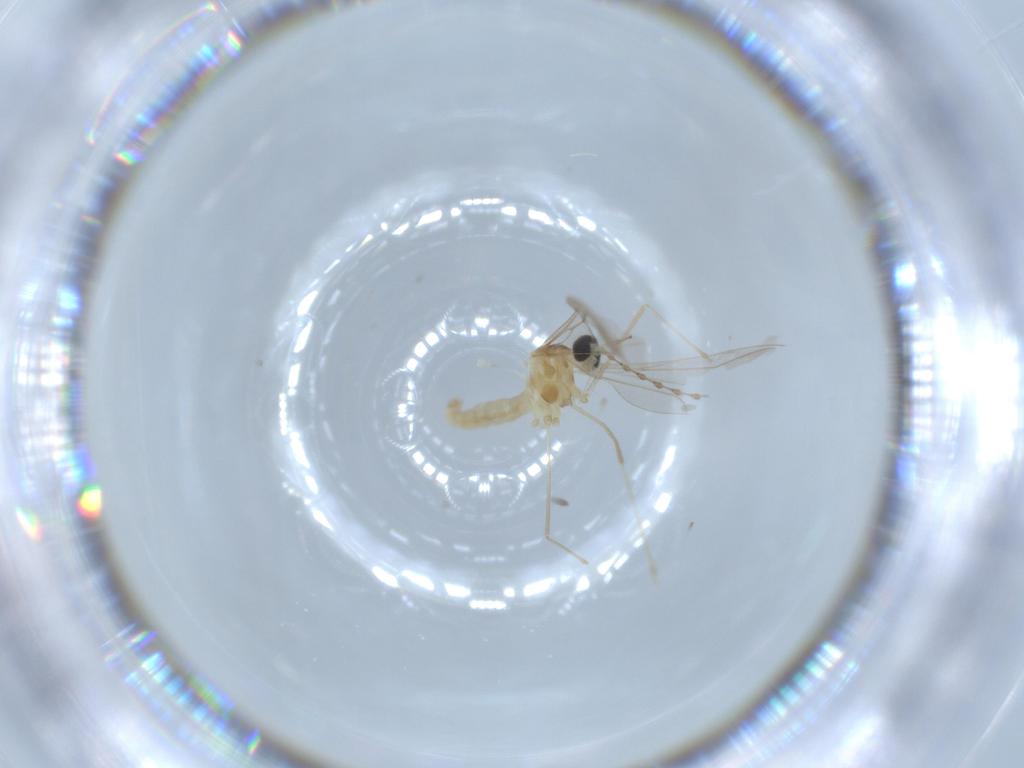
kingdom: Animalia
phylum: Arthropoda
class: Insecta
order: Diptera
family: Cecidomyiidae
